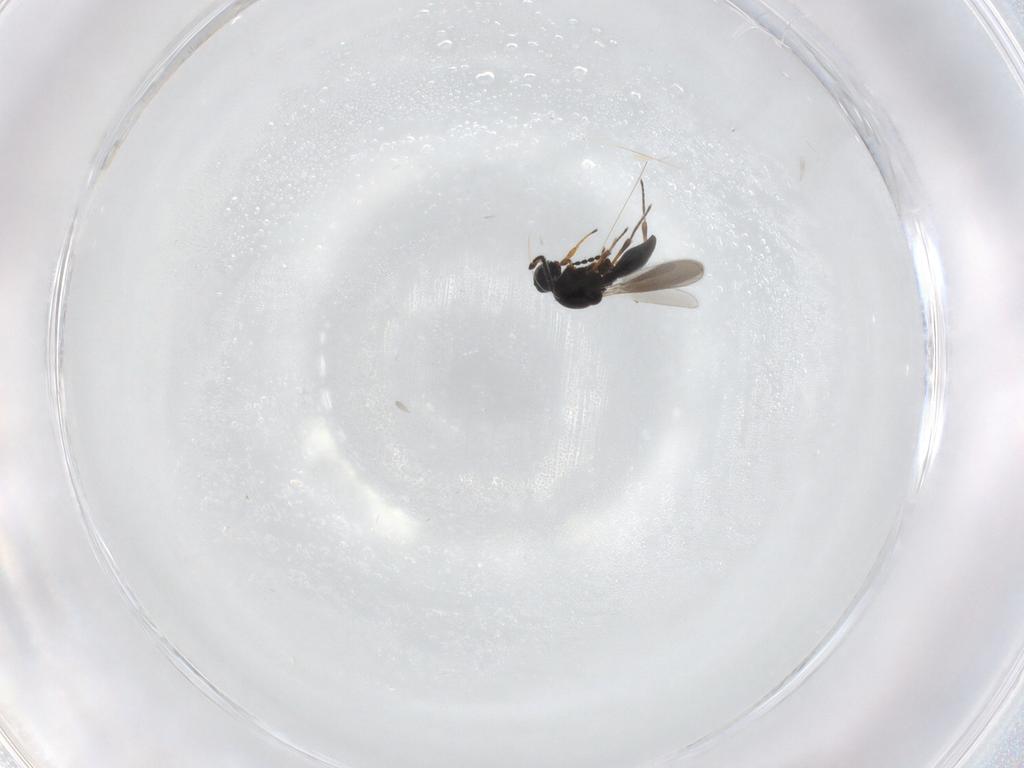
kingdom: Animalia
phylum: Arthropoda
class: Insecta
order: Hymenoptera
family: Platygastridae
